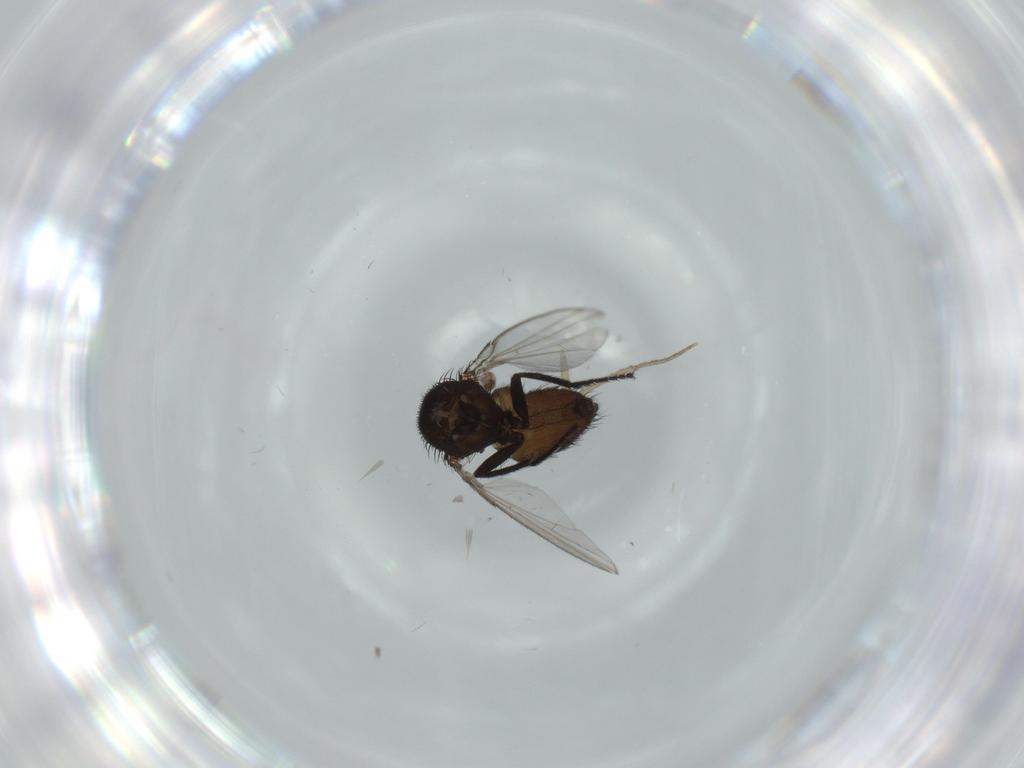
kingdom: Animalia
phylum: Arthropoda
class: Insecta
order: Diptera
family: Milichiidae
